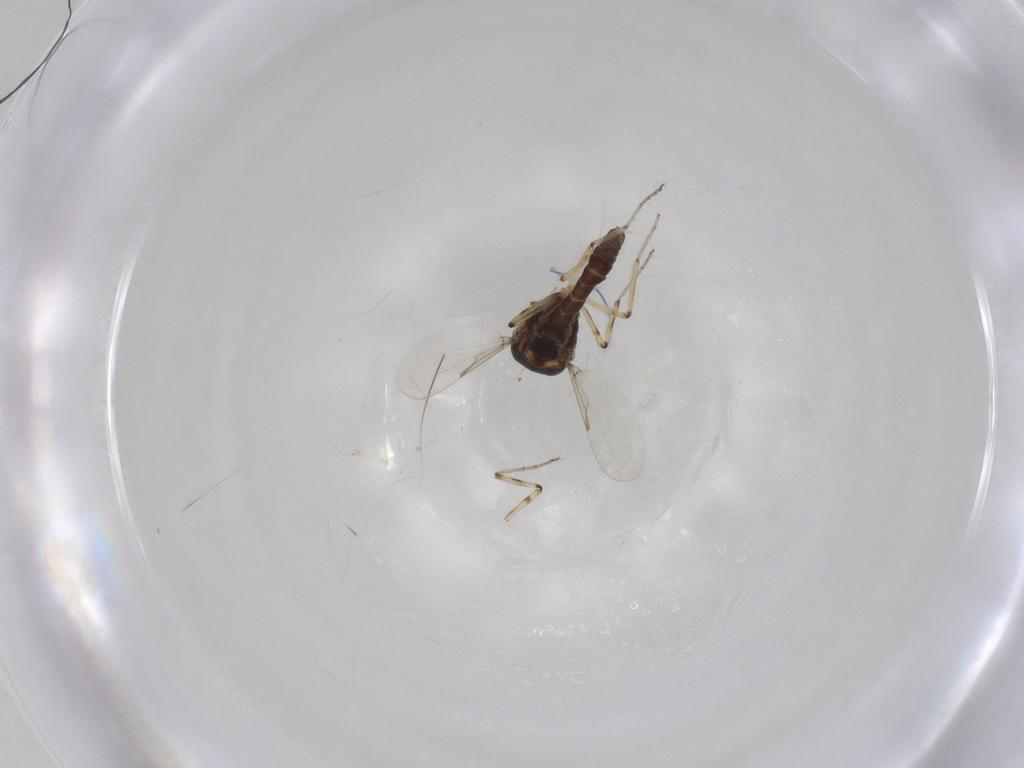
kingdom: Animalia
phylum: Arthropoda
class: Insecta
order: Diptera
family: Ceratopogonidae
